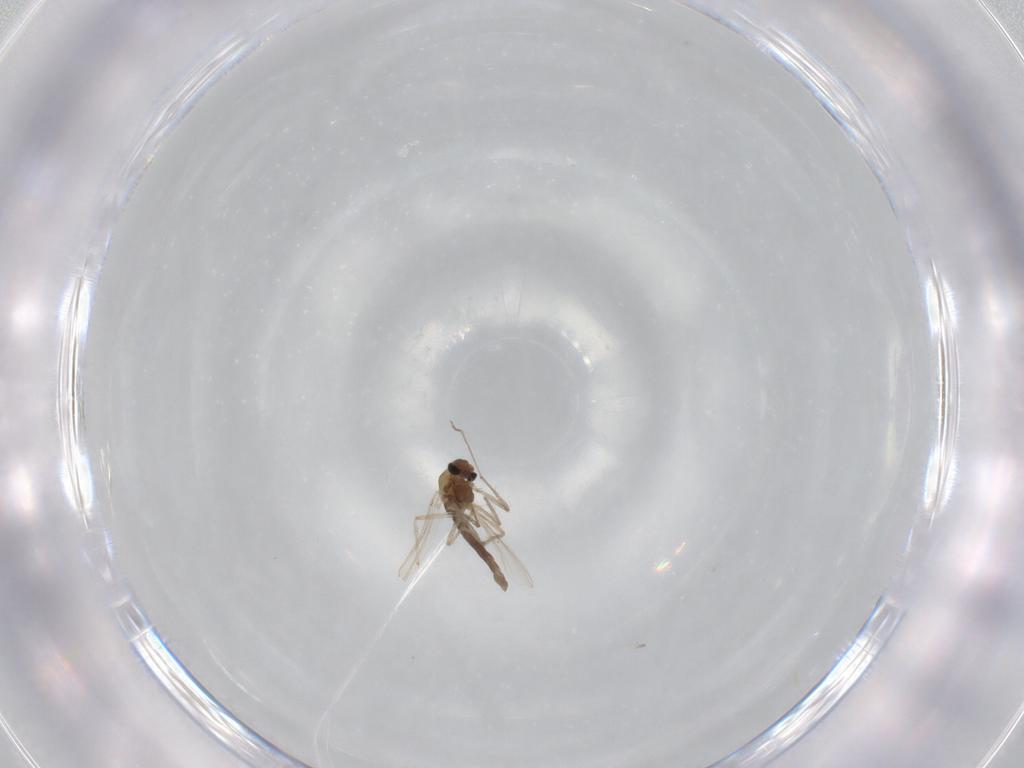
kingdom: Animalia
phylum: Arthropoda
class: Insecta
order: Diptera
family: Chironomidae
